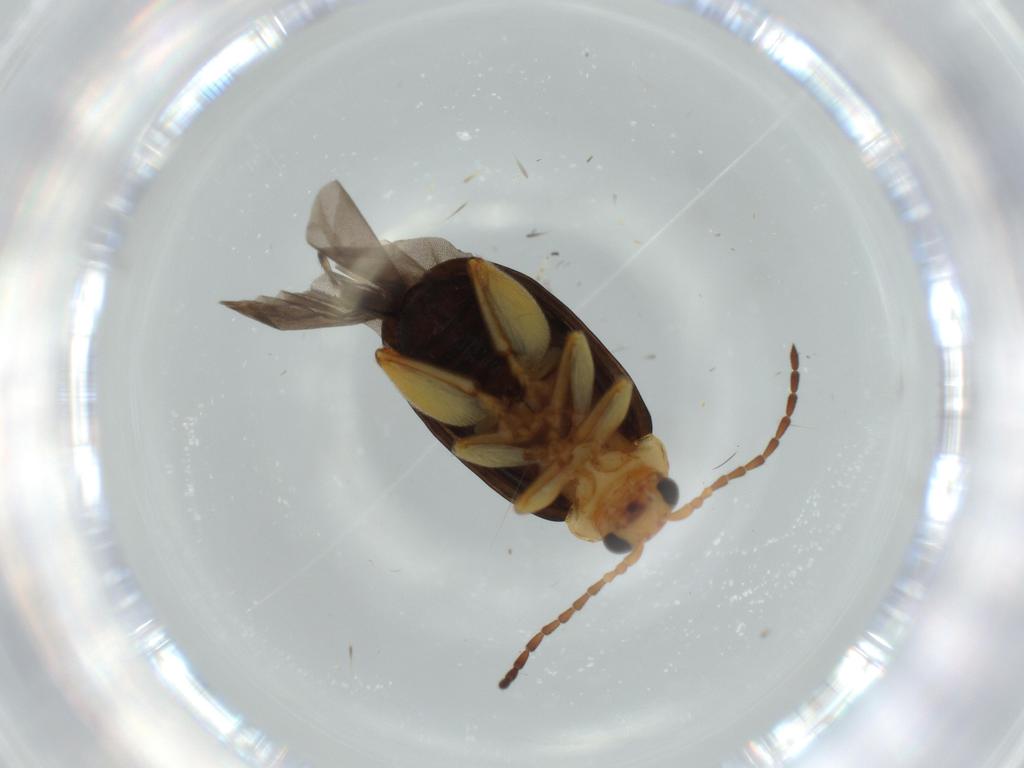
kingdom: Animalia
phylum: Arthropoda
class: Insecta
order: Coleoptera
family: Chrysomelidae
